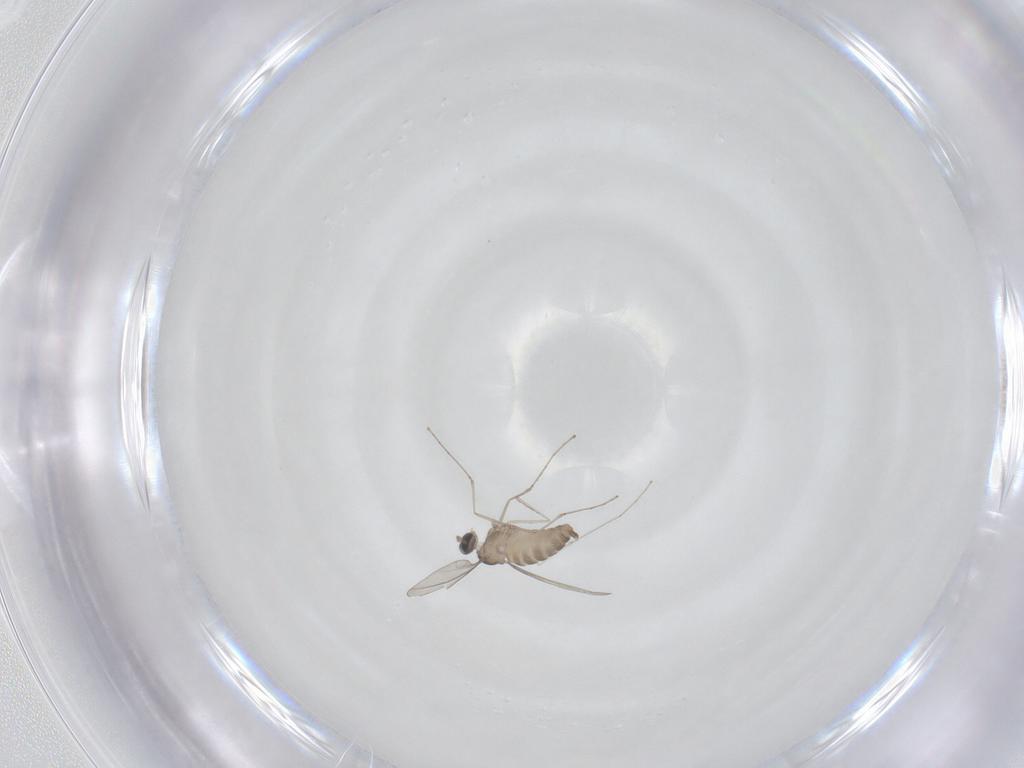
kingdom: Animalia
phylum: Arthropoda
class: Insecta
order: Diptera
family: Cecidomyiidae
